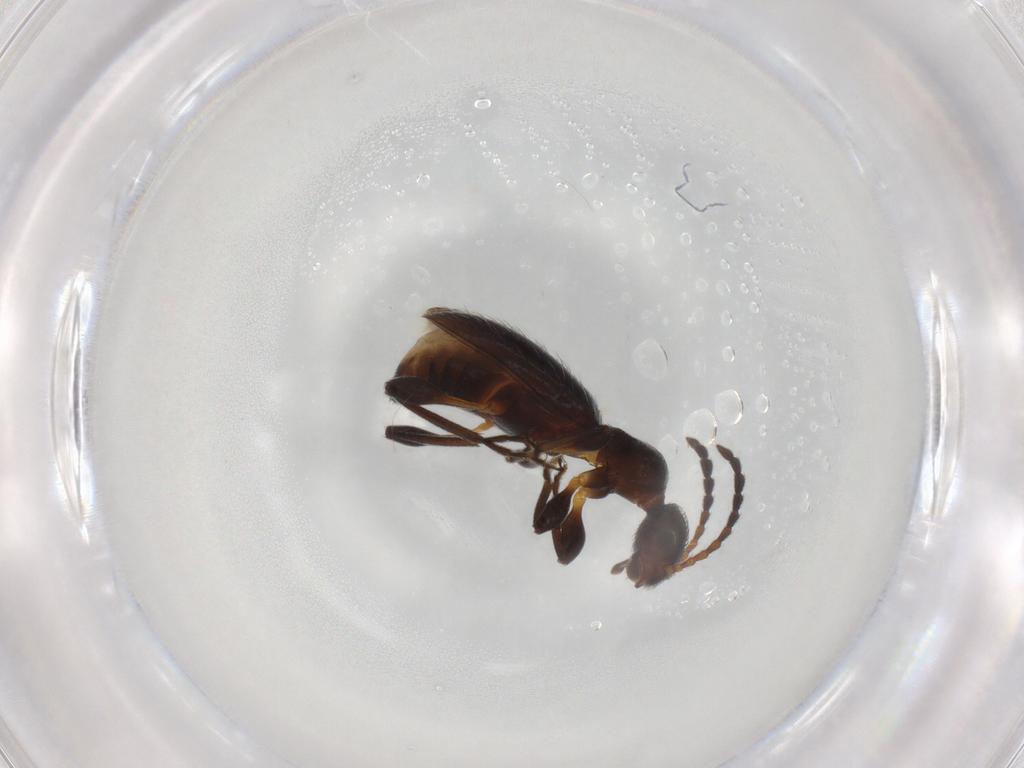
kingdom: Animalia
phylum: Arthropoda
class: Insecta
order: Coleoptera
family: Anthicidae
